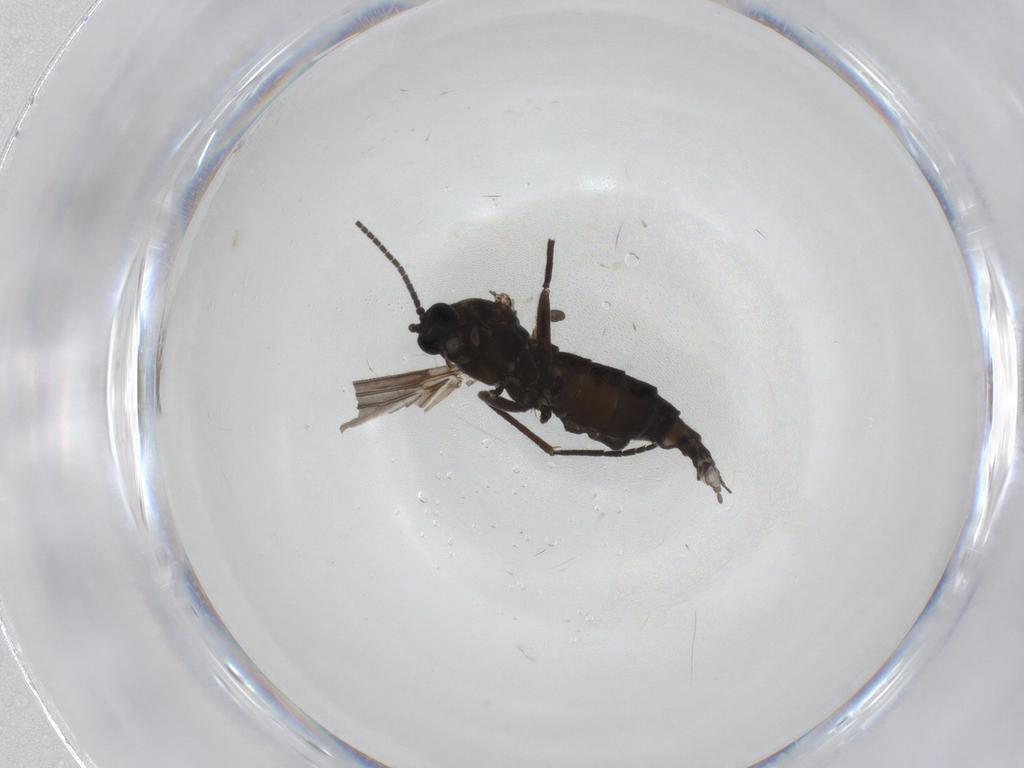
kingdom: Animalia
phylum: Arthropoda
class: Insecta
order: Diptera
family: Sciaridae
